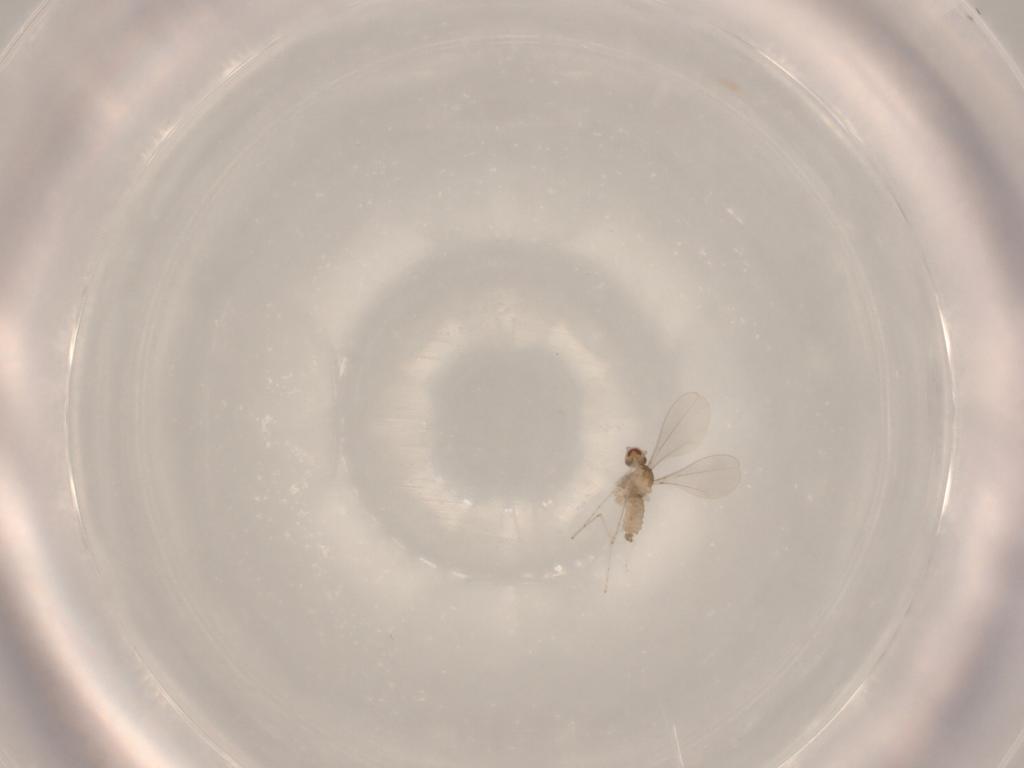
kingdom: Animalia
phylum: Arthropoda
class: Insecta
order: Diptera
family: Cecidomyiidae
